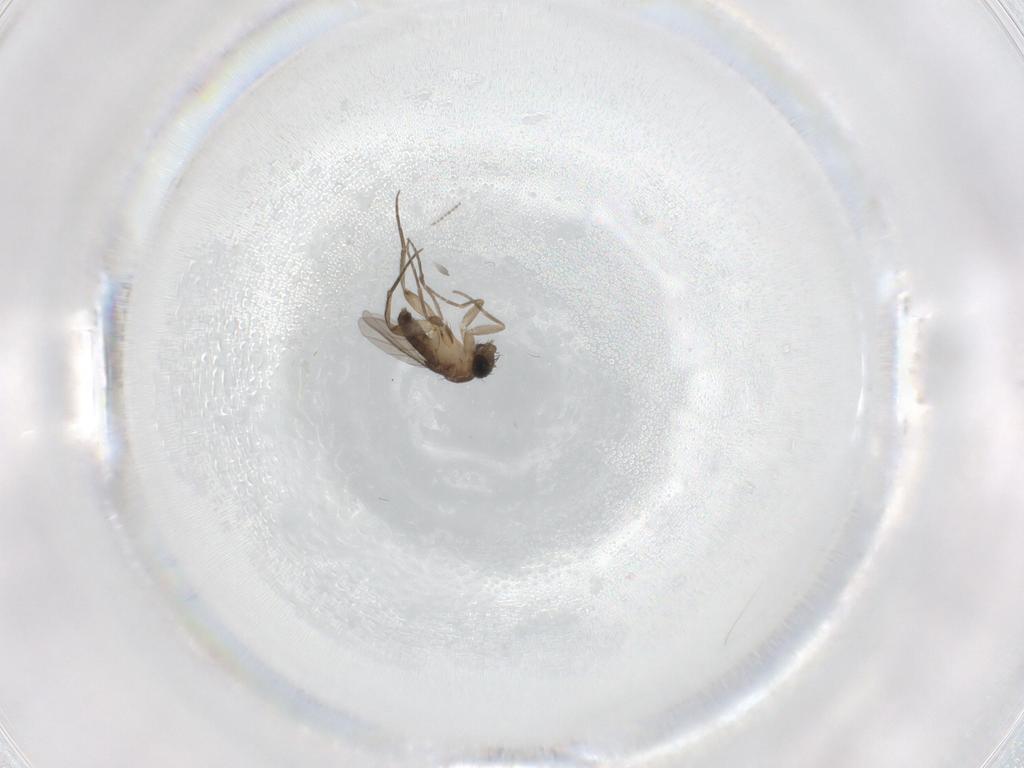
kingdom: Animalia
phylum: Arthropoda
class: Insecta
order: Diptera
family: Phoridae
